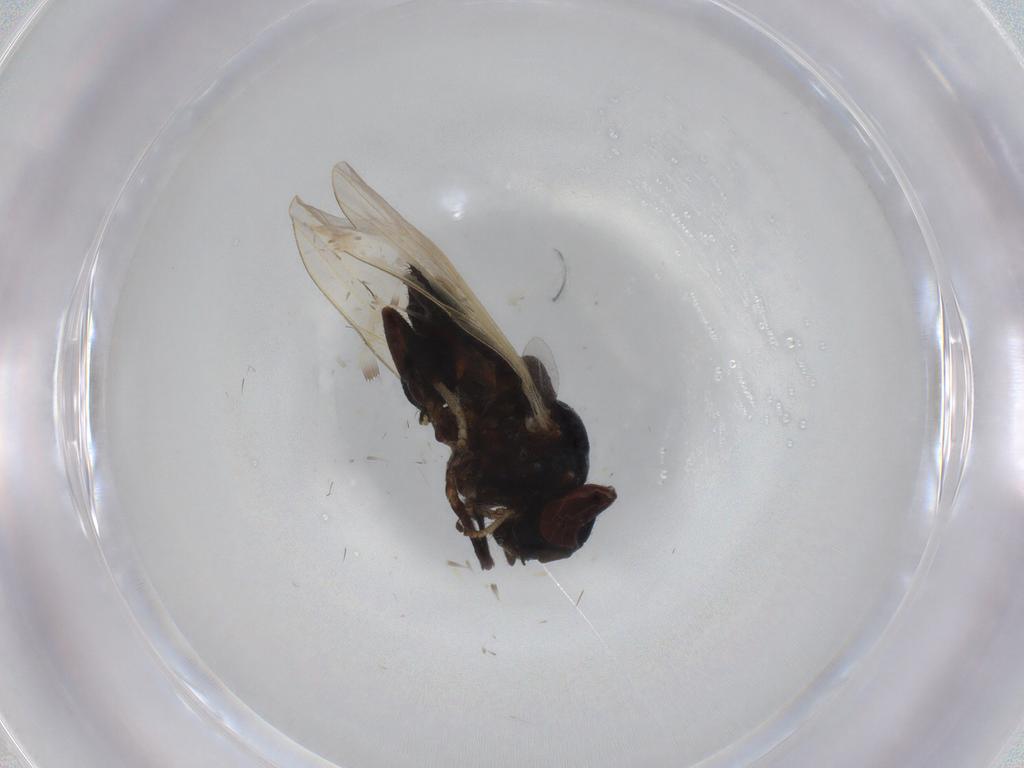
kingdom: Animalia
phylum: Arthropoda
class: Insecta
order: Diptera
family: Lonchaeidae
